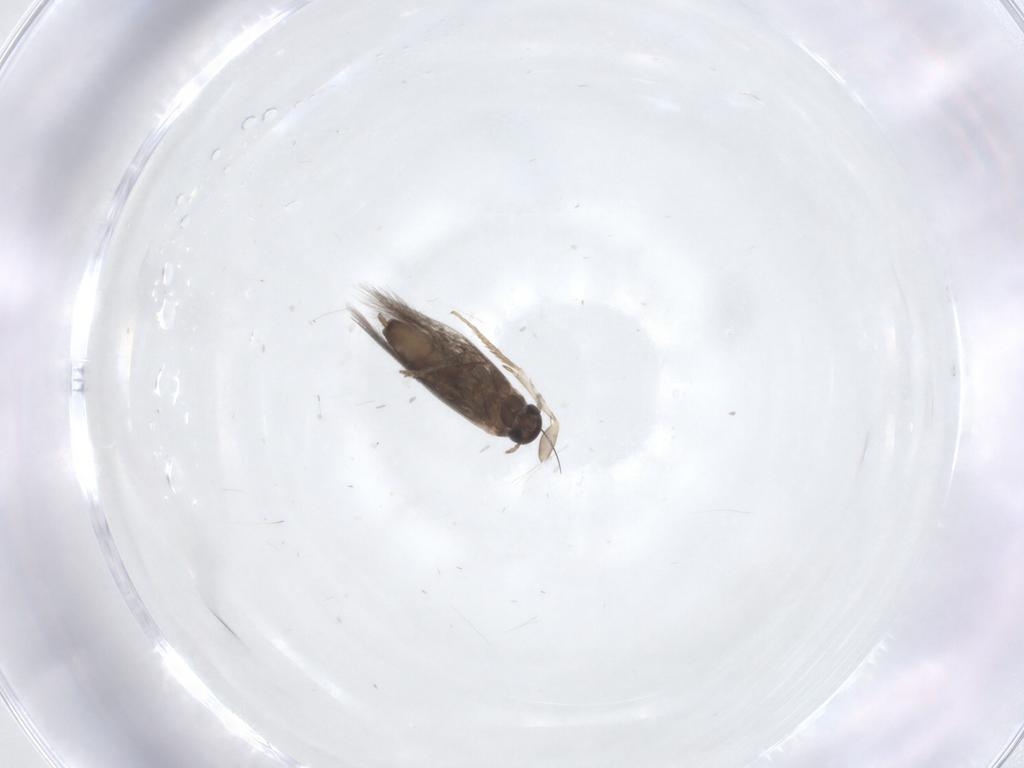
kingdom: Animalia
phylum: Arthropoda
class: Insecta
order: Lepidoptera
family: Heliozelidae
